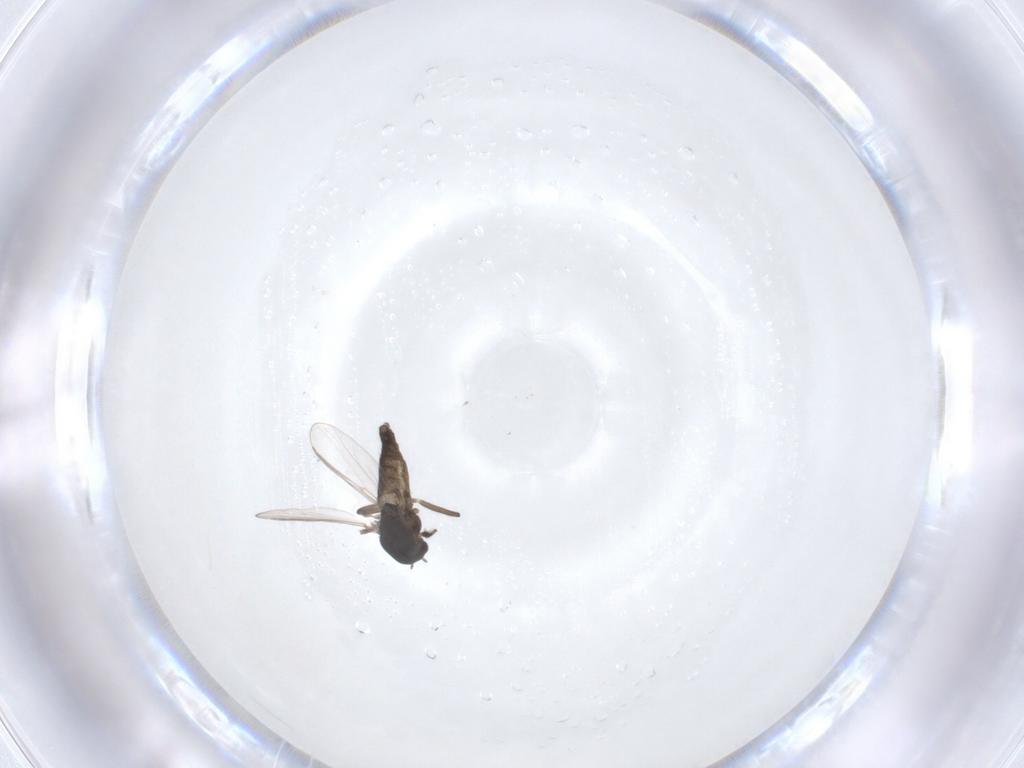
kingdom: Animalia
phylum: Arthropoda
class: Insecta
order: Diptera
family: Chironomidae
